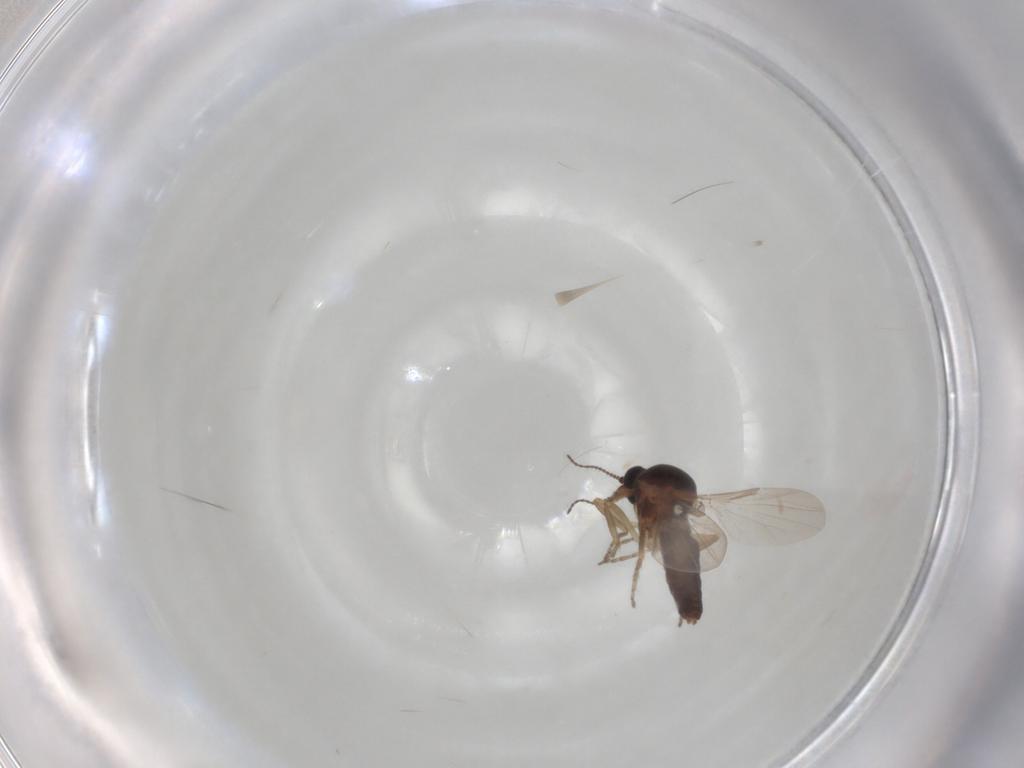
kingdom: Animalia
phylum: Arthropoda
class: Insecta
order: Diptera
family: Ceratopogonidae
